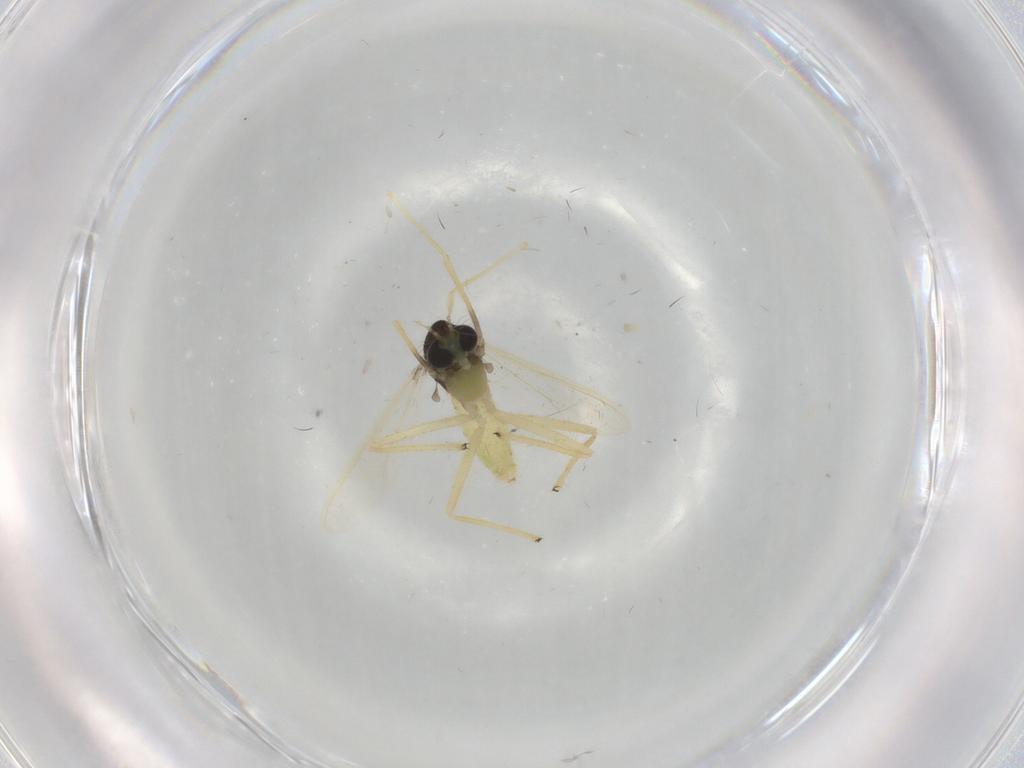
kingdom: Animalia
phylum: Arthropoda
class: Insecta
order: Diptera
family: Chironomidae
